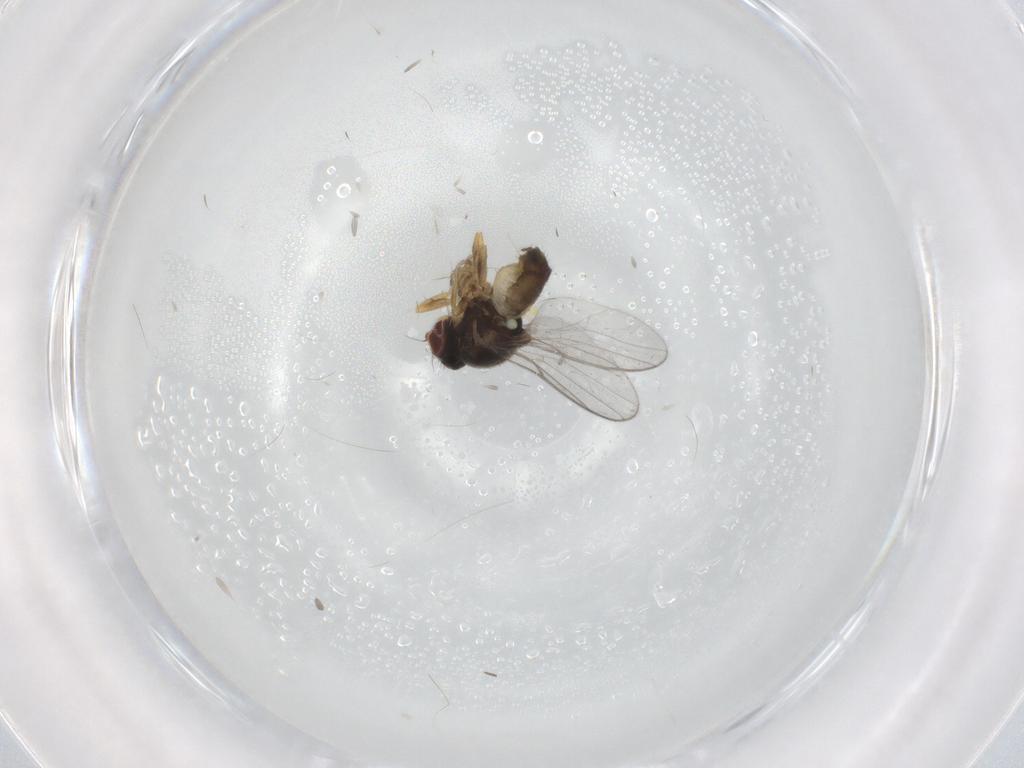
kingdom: Animalia
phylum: Arthropoda
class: Insecta
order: Diptera
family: Chloropidae
